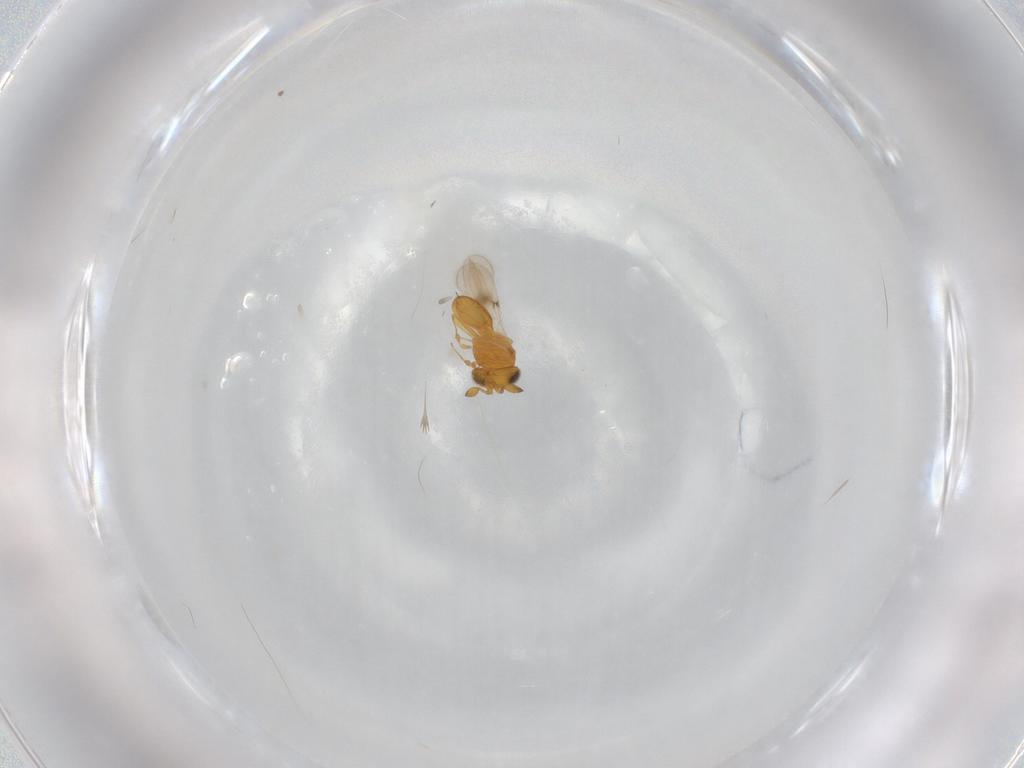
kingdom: Animalia
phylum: Arthropoda
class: Insecta
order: Hymenoptera
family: Scelionidae
